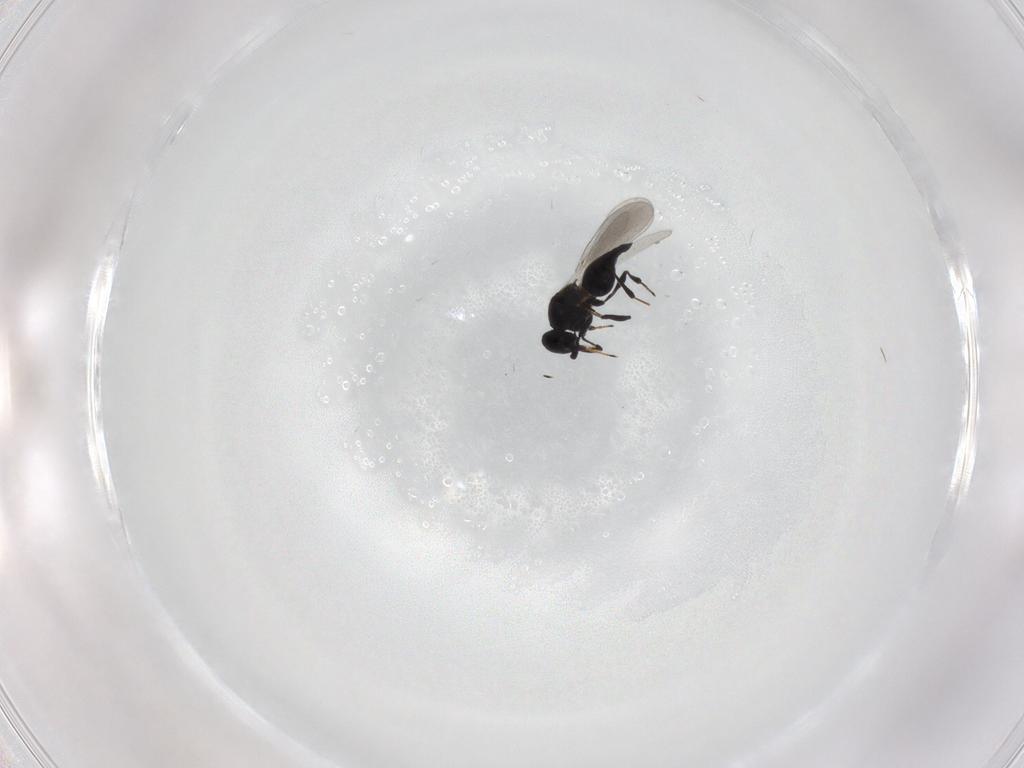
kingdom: Animalia
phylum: Arthropoda
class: Insecta
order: Hymenoptera
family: Platygastridae
